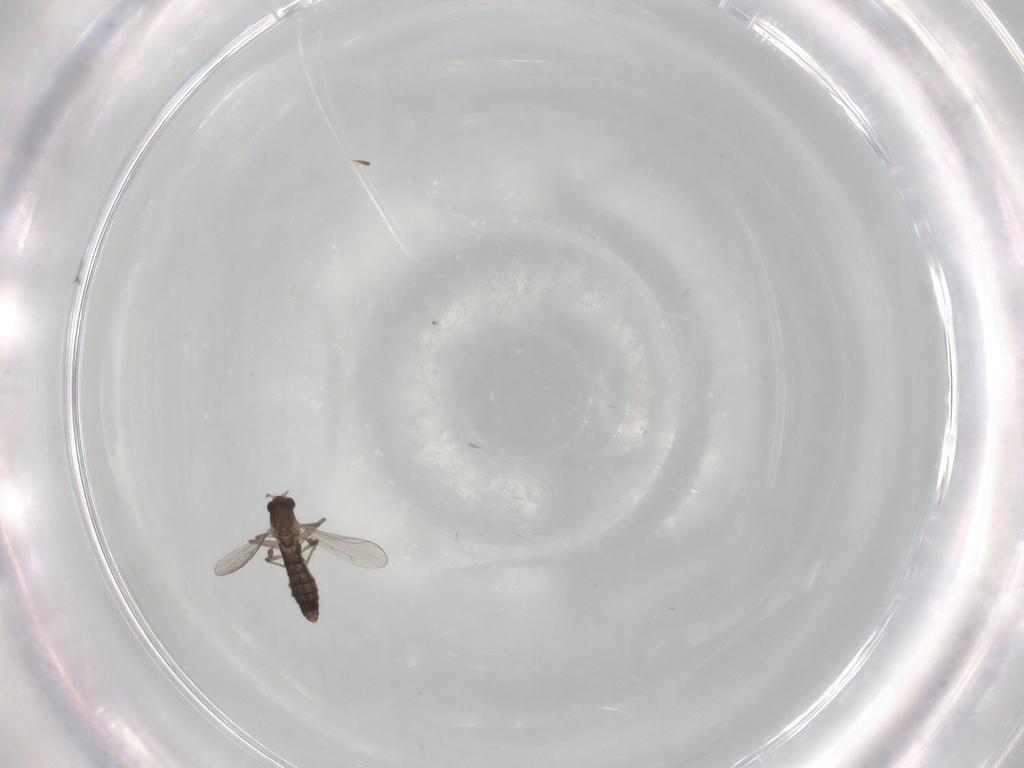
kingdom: Animalia
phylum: Arthropoda
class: Insecta
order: Diptera
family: Chironomidae
